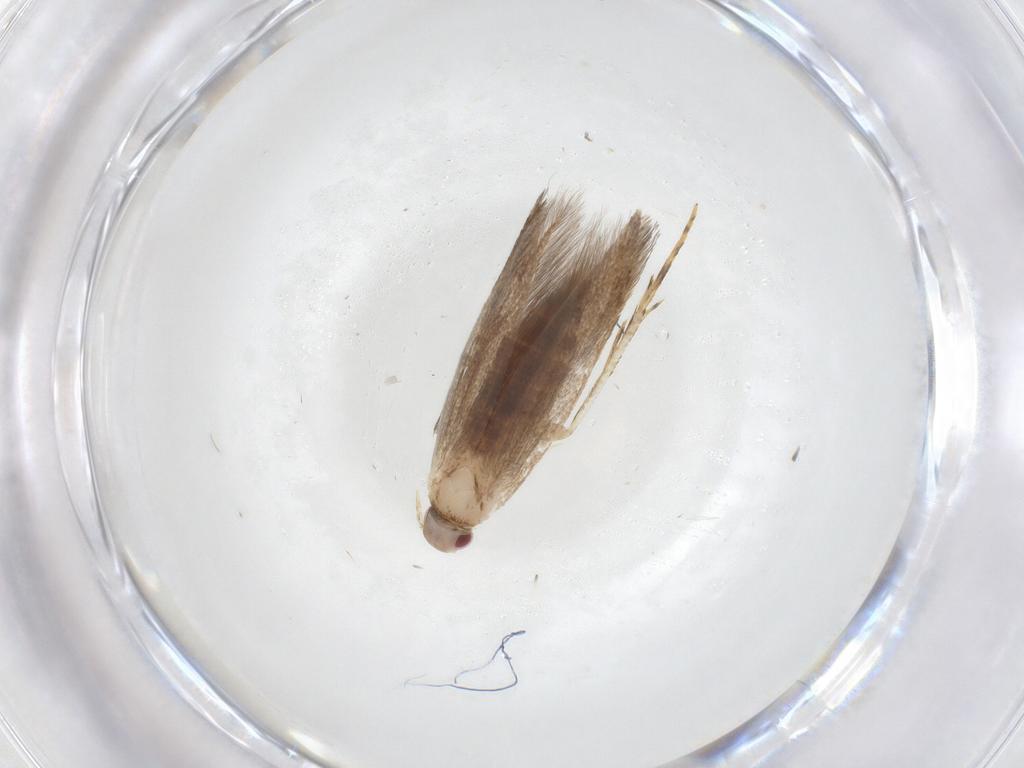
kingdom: Animalia
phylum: Arthropoda
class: Insecta
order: Lepidoptera
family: Cosmopterigidae
